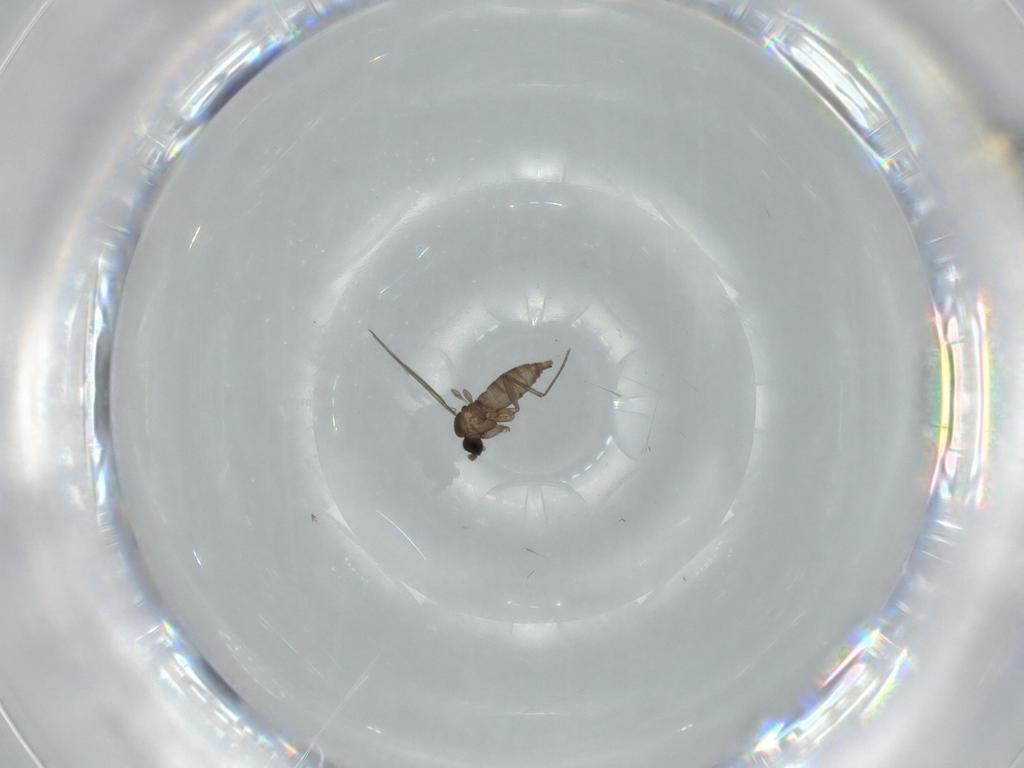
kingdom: Animalia
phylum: Arthropoda
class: Insecta
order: Diptera
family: Sciaridae
